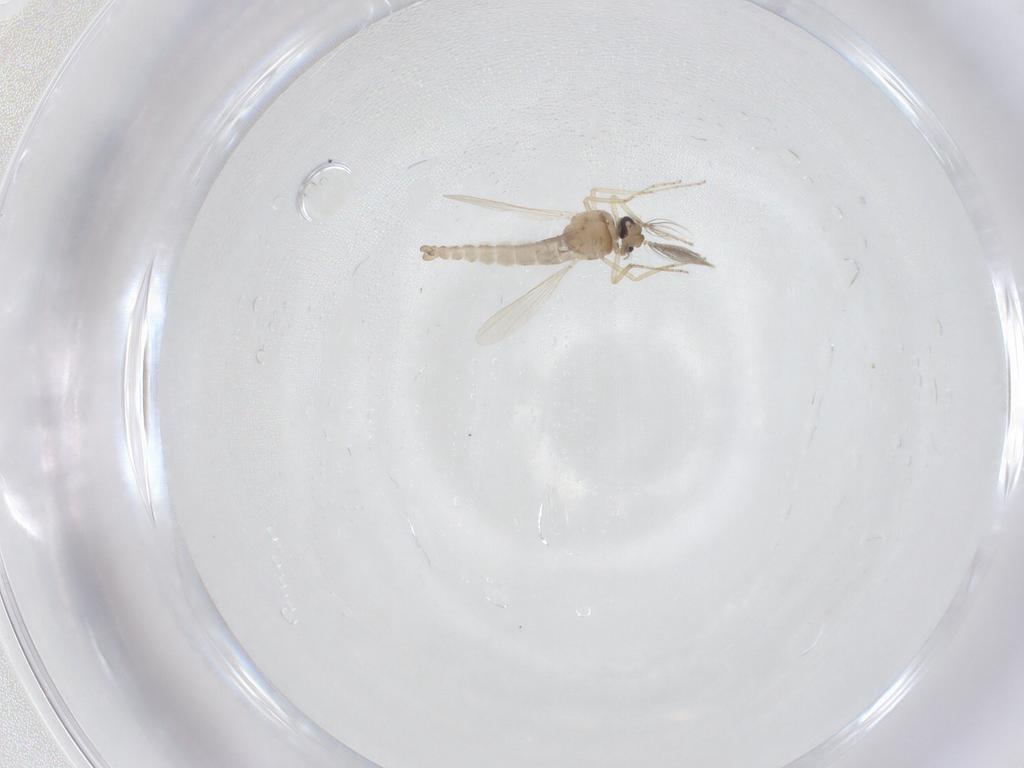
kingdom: Animalia
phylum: Arthropoda
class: Insecta
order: Diptera
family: Ceratopogonidae
